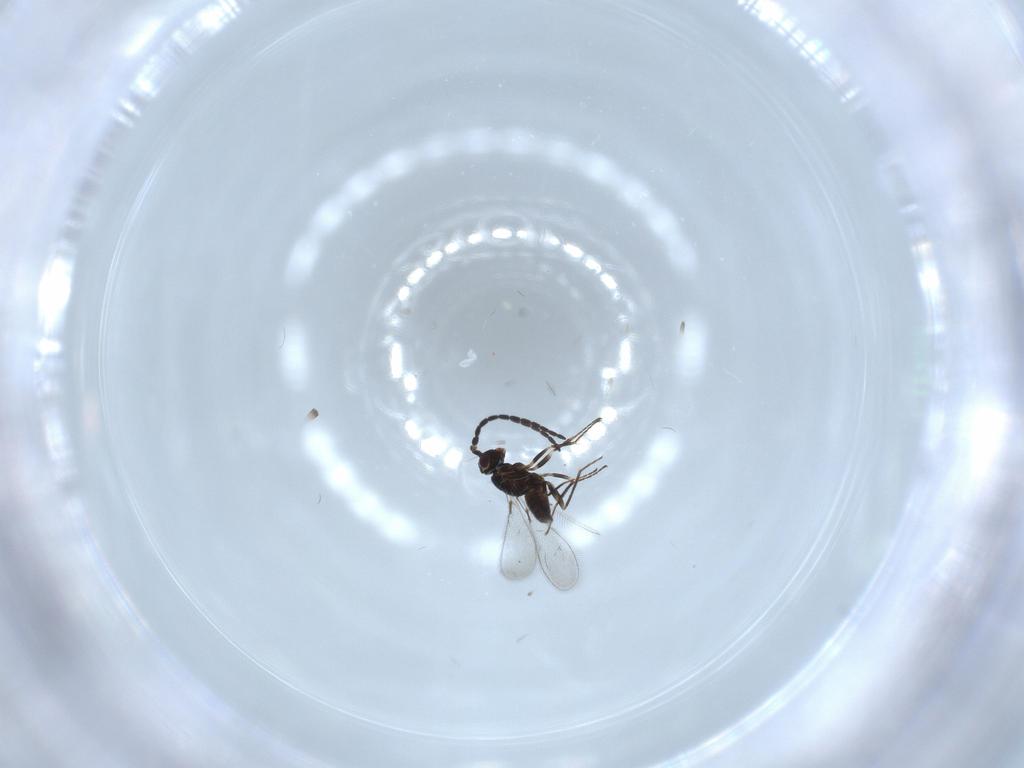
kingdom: Animalia
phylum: Arthropoda
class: Insecta
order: Hymenoptera
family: Mymaridae
